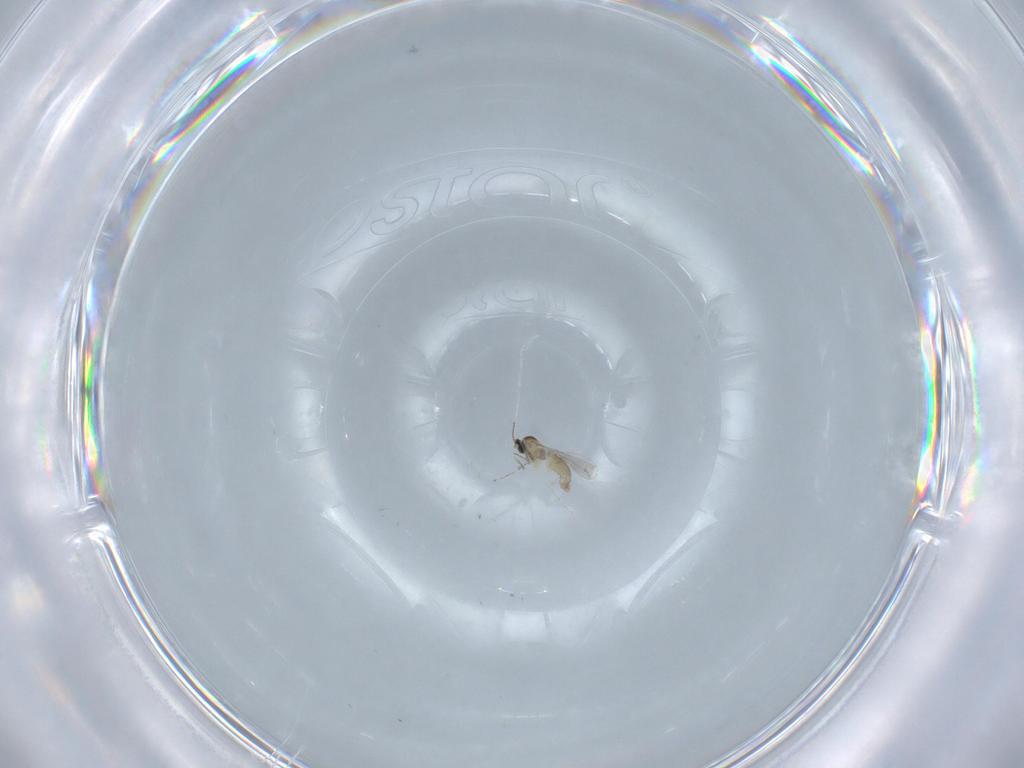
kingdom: Animalia
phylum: Arthropoda
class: Insecta
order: Diptera
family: Chironomidae
